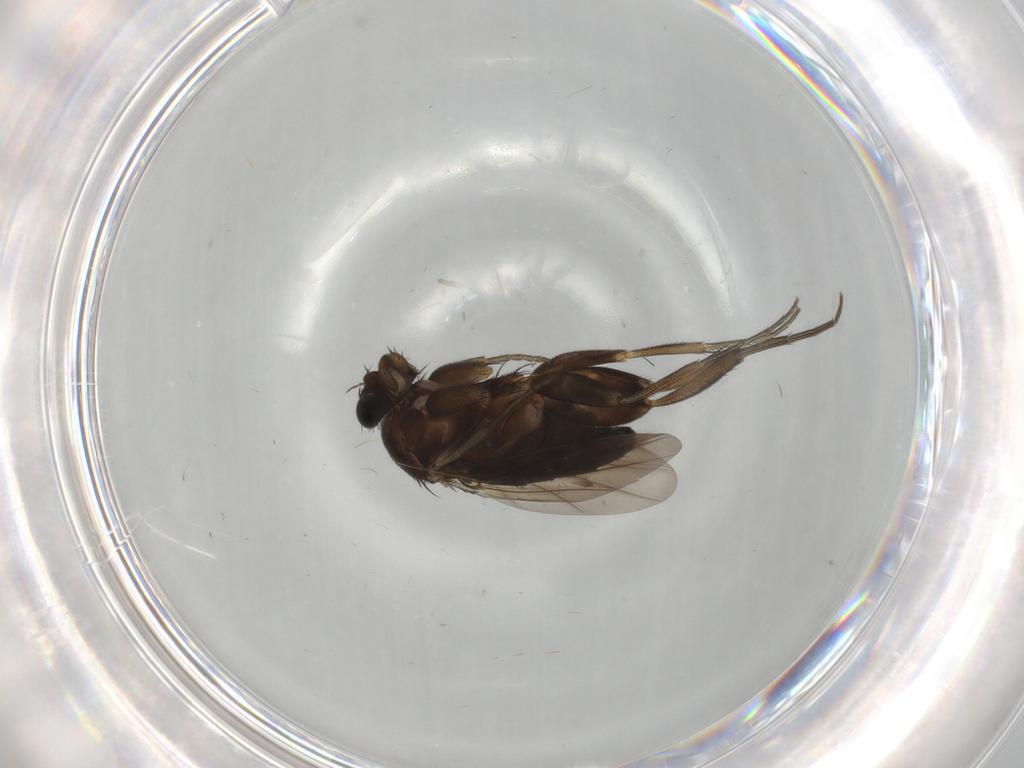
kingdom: Animalia
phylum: Arthropoda
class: Insecta
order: Diptera
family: Phoridae
